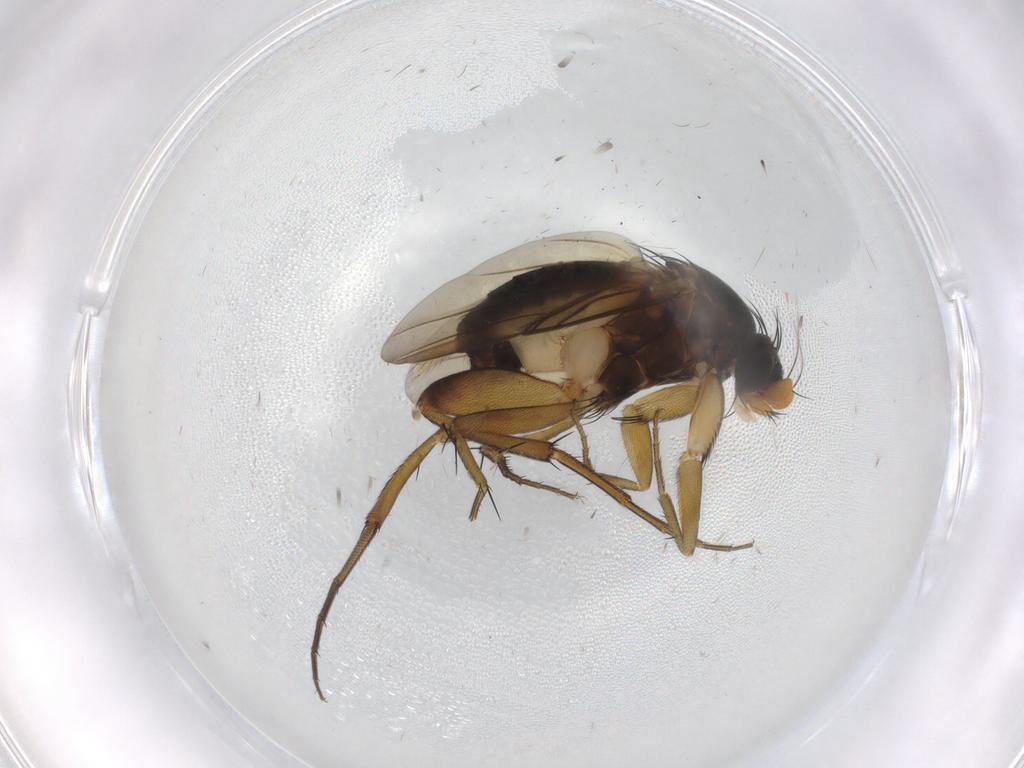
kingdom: Animalia
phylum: Arthropoda
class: Insecta
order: Diptera
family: Phoridae
